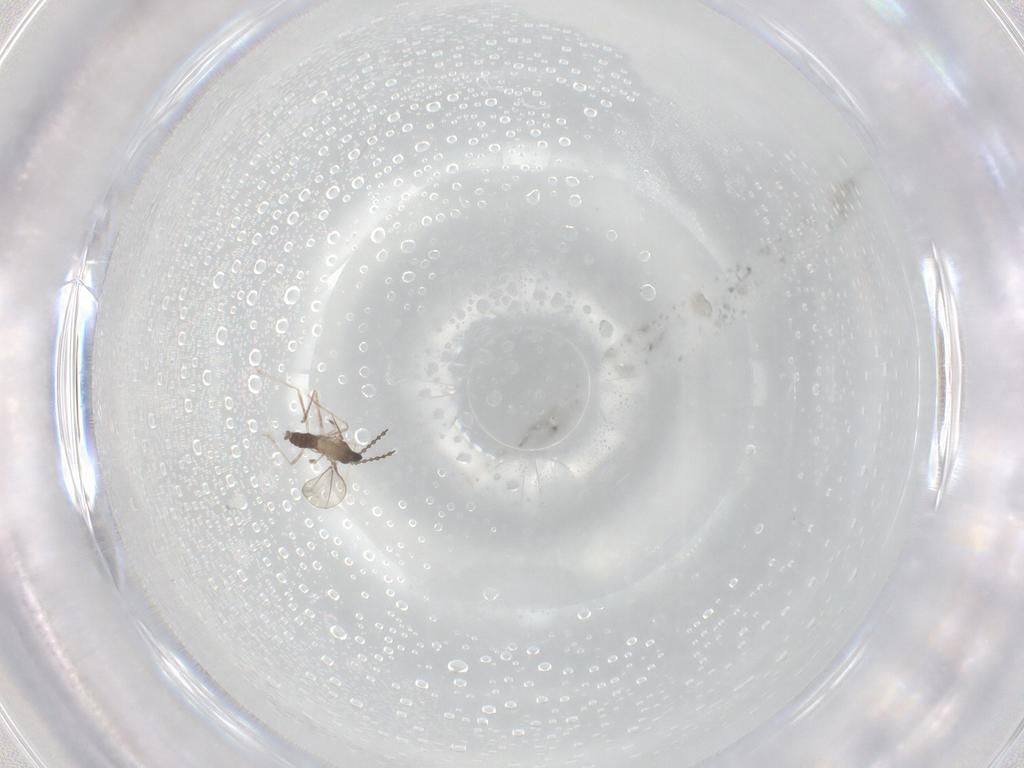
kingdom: Animalia
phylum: Arthropoda
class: Insecta
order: Diptera
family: Cecidomyiidae
